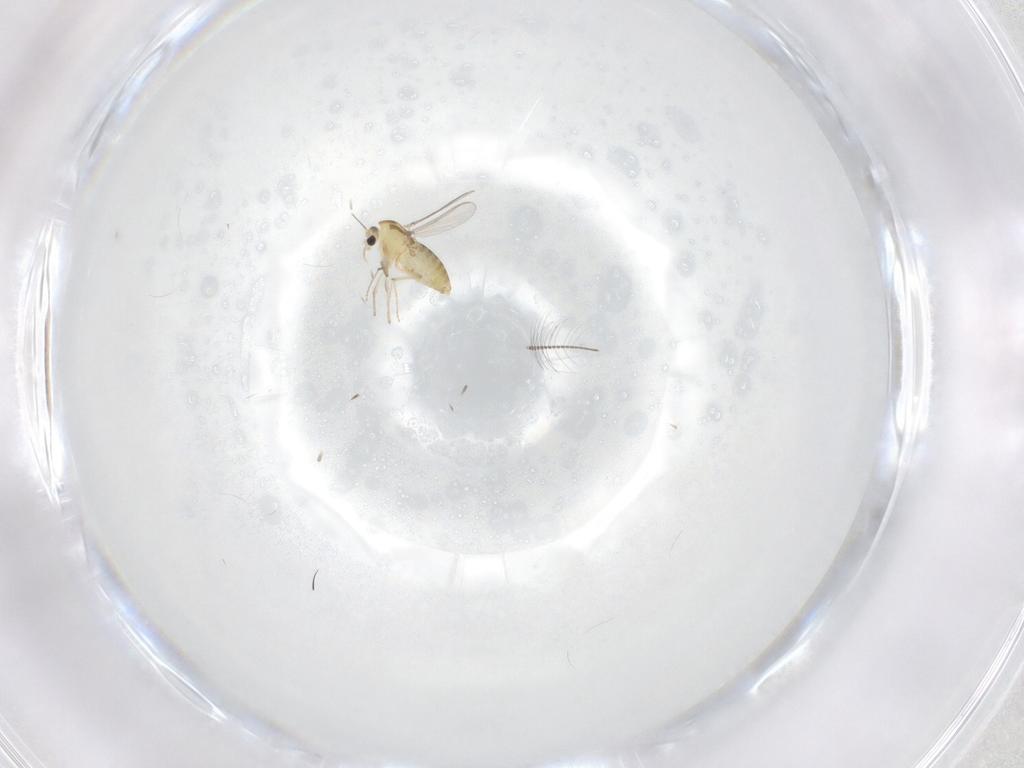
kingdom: Animalia
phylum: Arthropoda
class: Insecta
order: Diptera
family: Chironomidae
